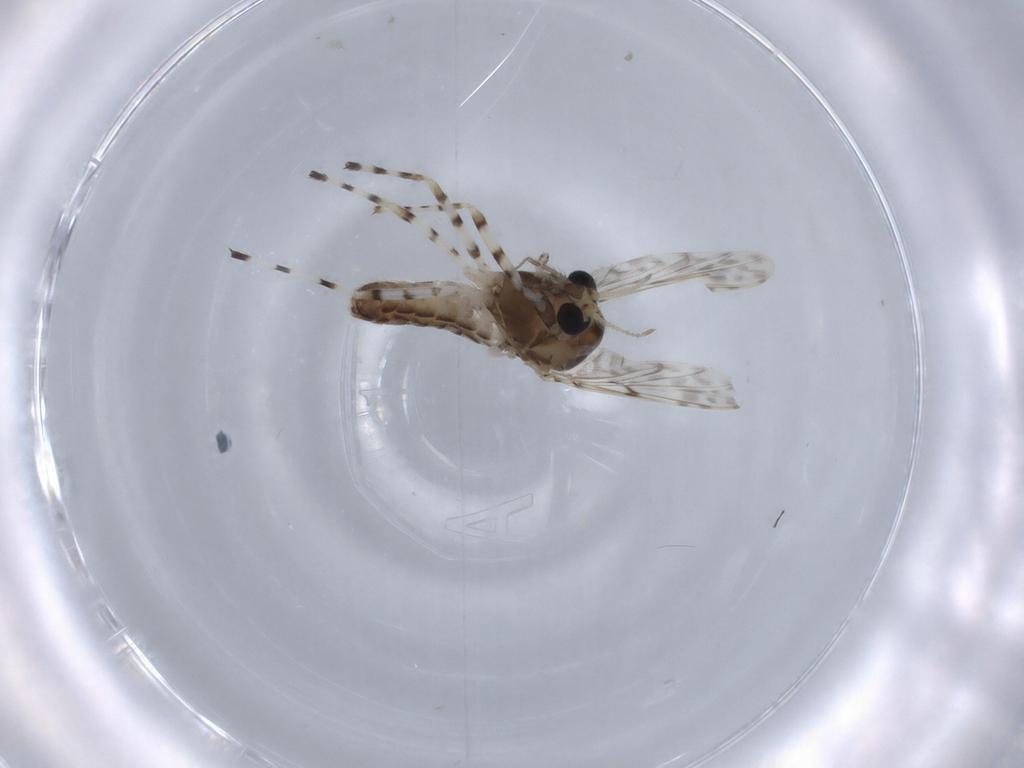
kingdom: Animalia
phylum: Arthropoda
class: Insecta
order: Diptera
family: Chironomidae
